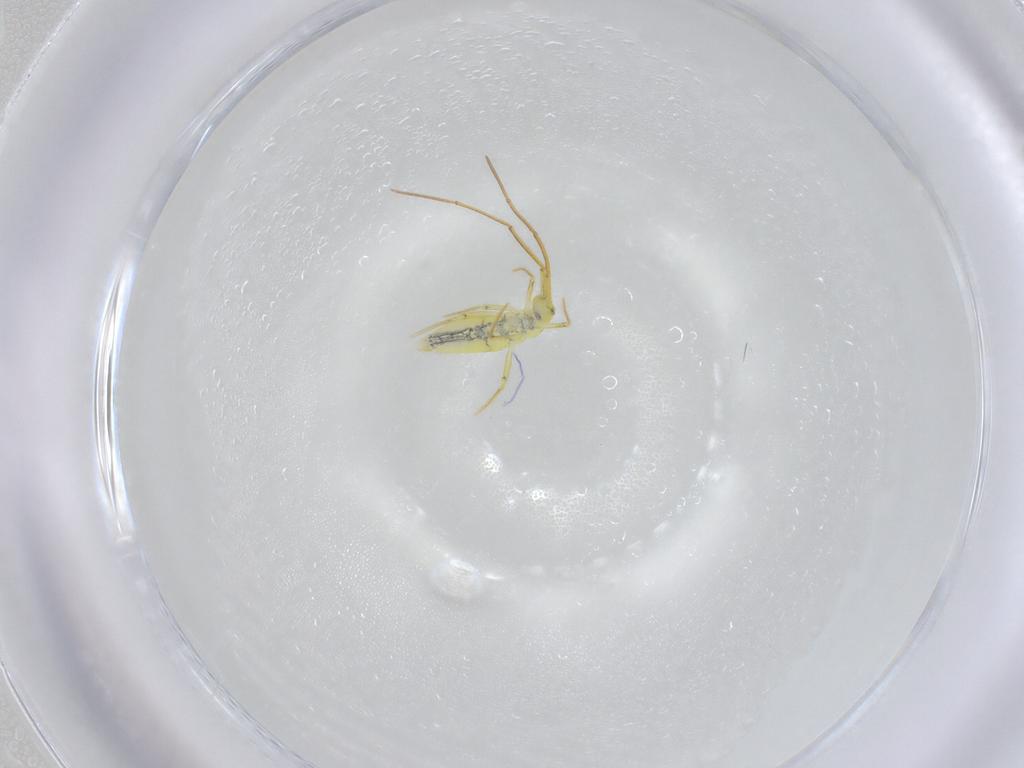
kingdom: Animalia
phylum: Arthropoda
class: Collembola
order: Entomobryomorpha
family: Entomobryidae
